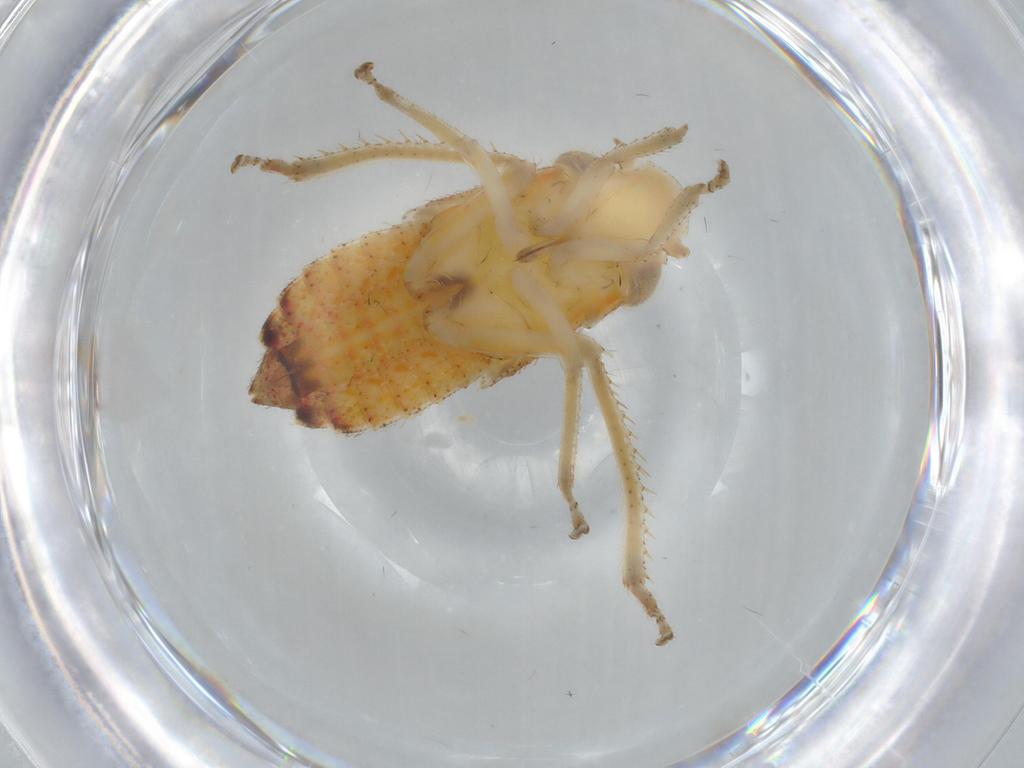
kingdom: Animalia
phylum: Arthropoda
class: Insecta
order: Hemiptera
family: Cicadellidae
